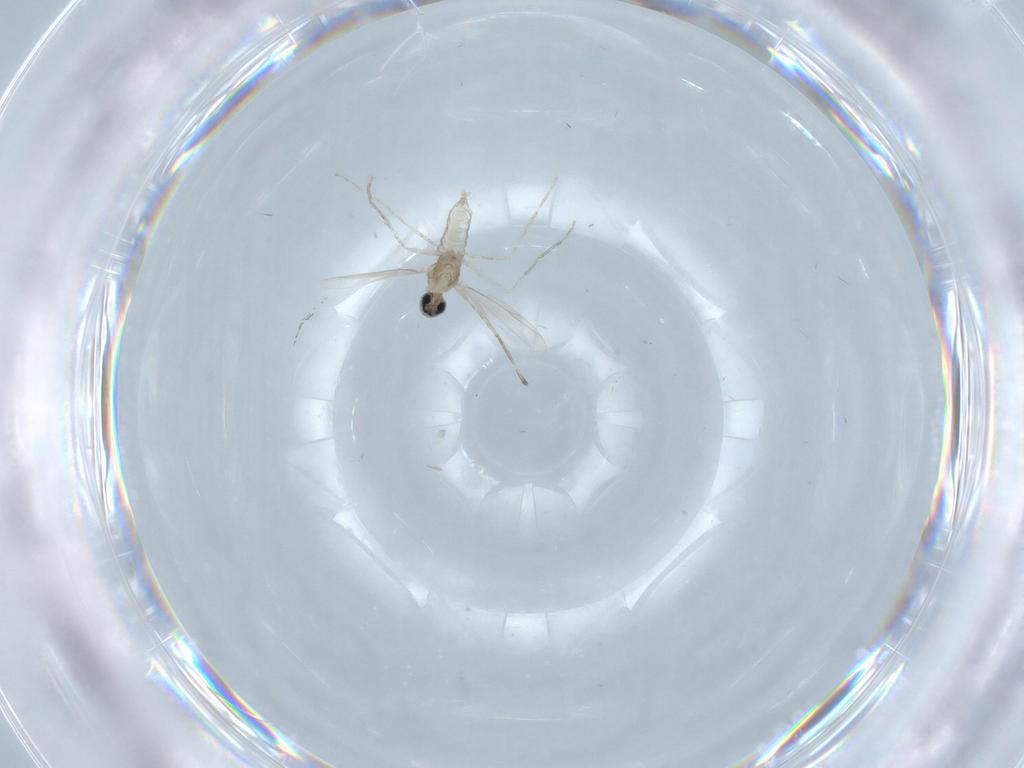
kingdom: Animalia
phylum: Arthropoda
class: Insecta
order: Diptera
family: Cecidomyiidae
